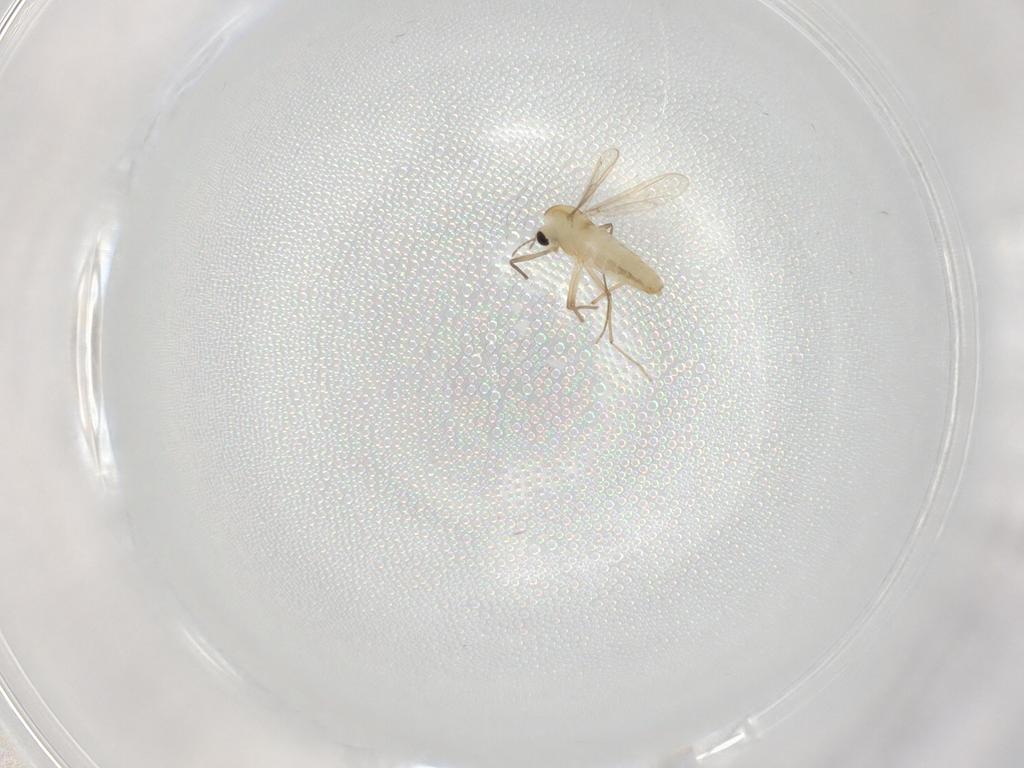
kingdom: Animalia
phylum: Arthropoda
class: Insecta
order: Diptera
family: Chironomidae
